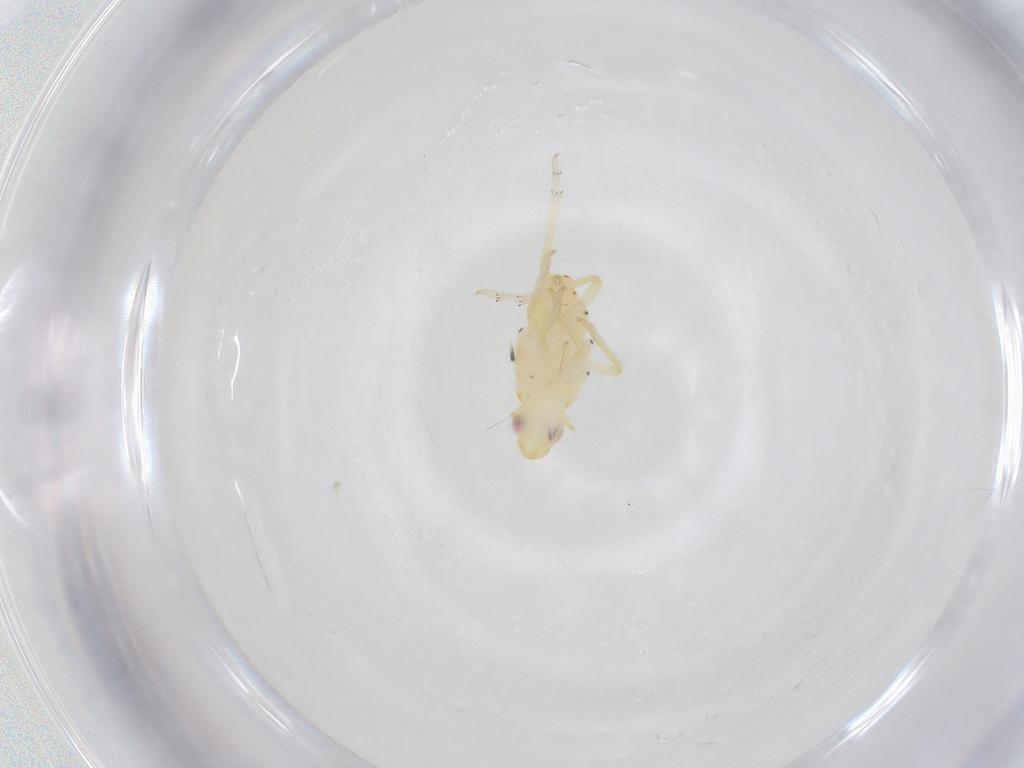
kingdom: Animalia
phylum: Arthropoda
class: Insecta
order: Hemiptera
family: Tropiduchidae
